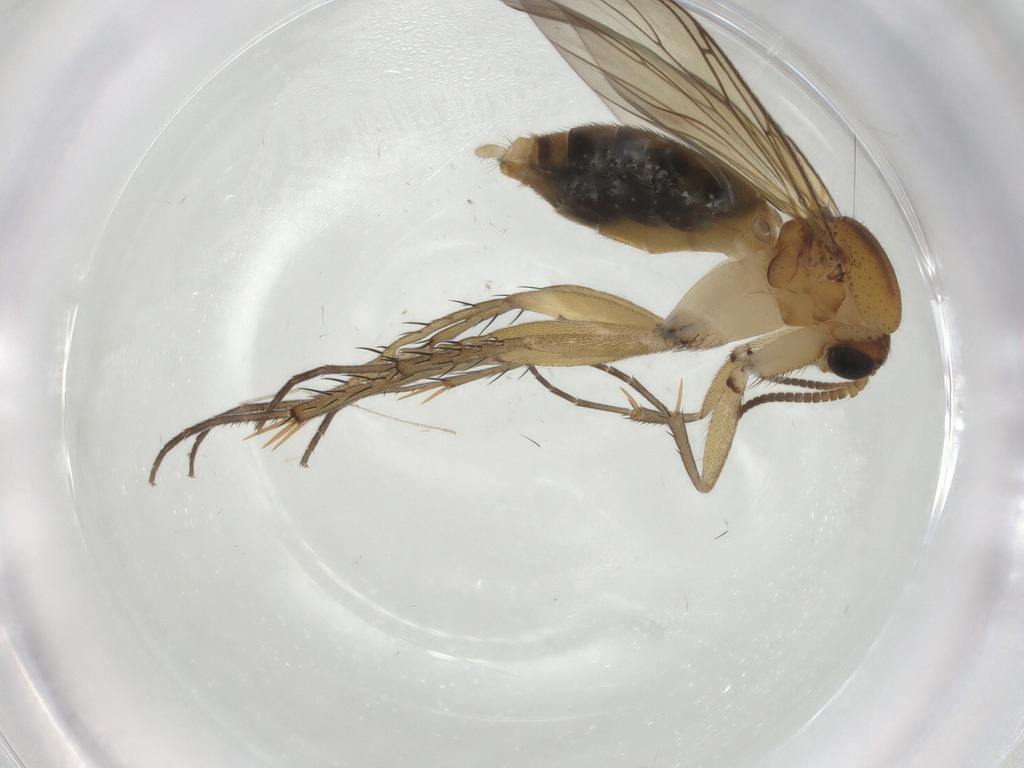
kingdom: Animalia
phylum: Arthropoda
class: Insecta
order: Diptera
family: Mycetophilidae
